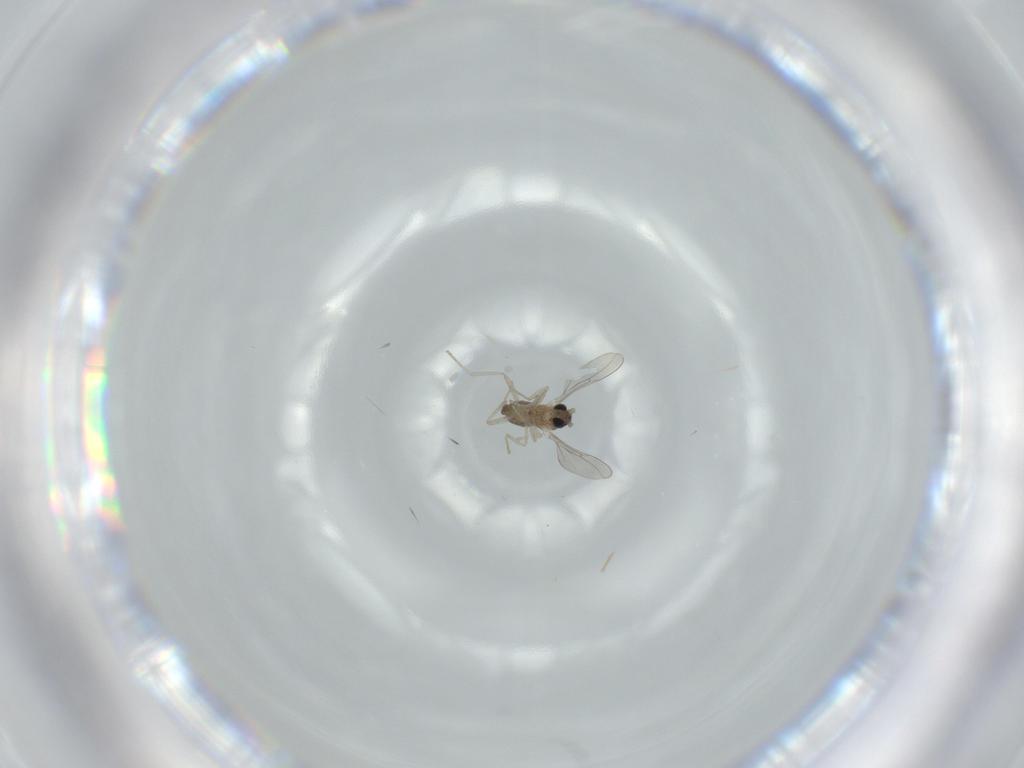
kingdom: Animalia
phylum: Arthropoda
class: Insecta
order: Diptera
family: Cecidomyiidae
